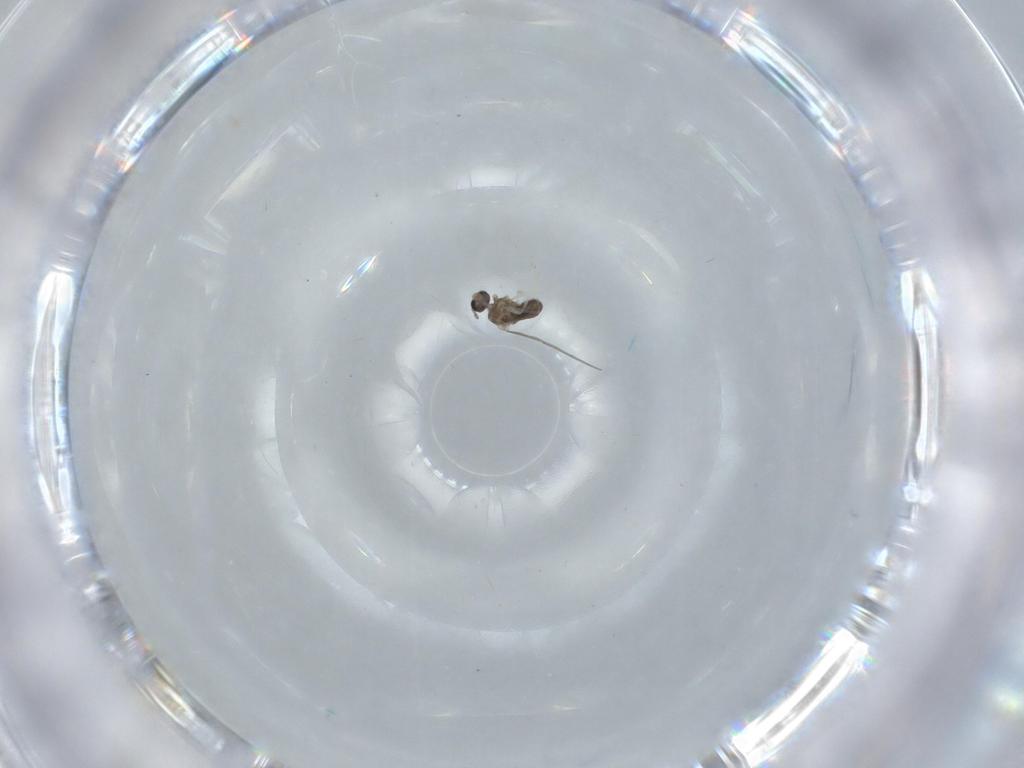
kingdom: Animalia
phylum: Arthropoda
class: Insecta
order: Diptera
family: Cecidomyiidae
